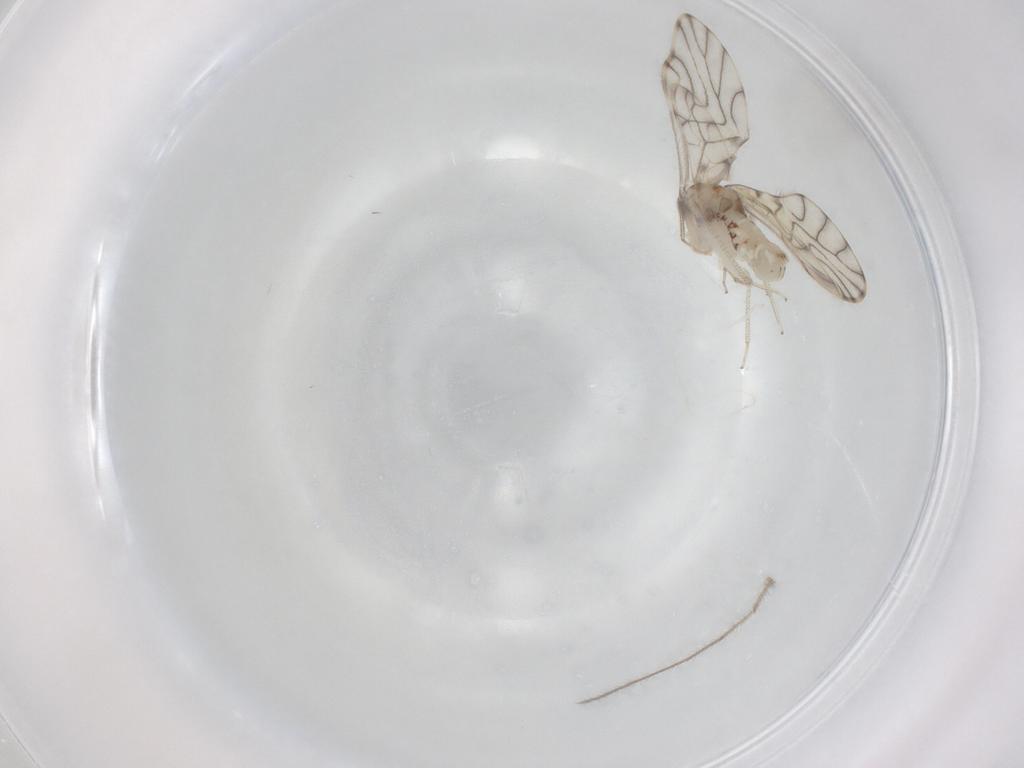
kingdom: Animalia
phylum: Arthropoda
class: Insecta
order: Psocodea
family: Philotarsidae
